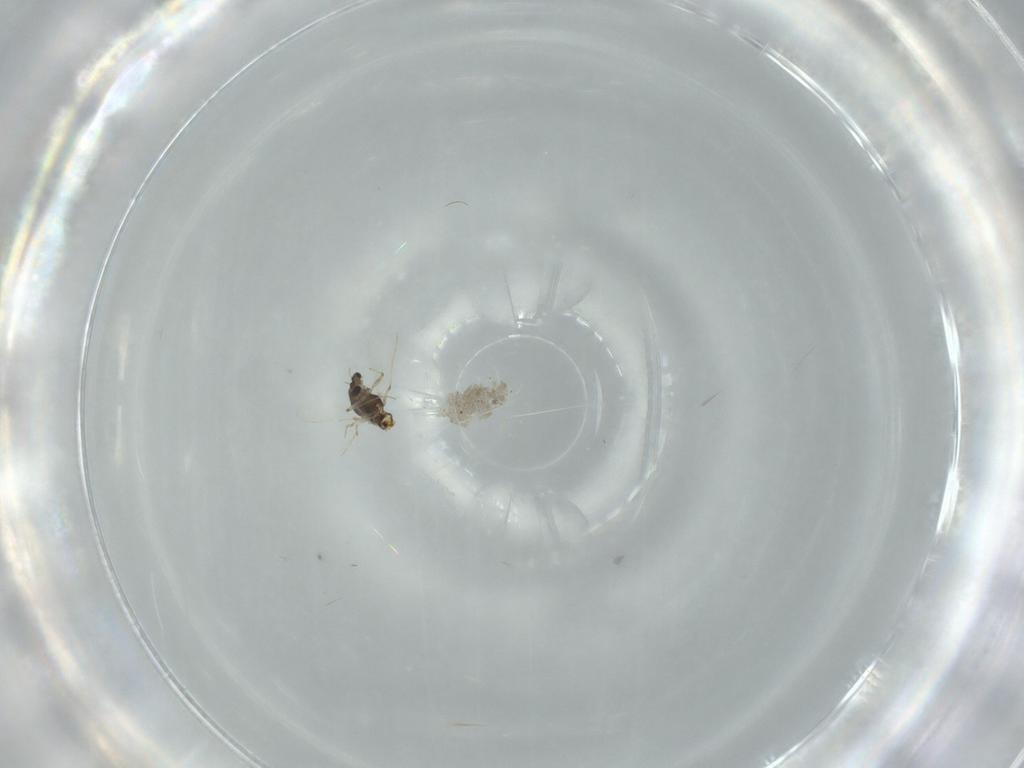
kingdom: Animalia
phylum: Arthropoda
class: Insecta
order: Diptera
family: Chironomidae
